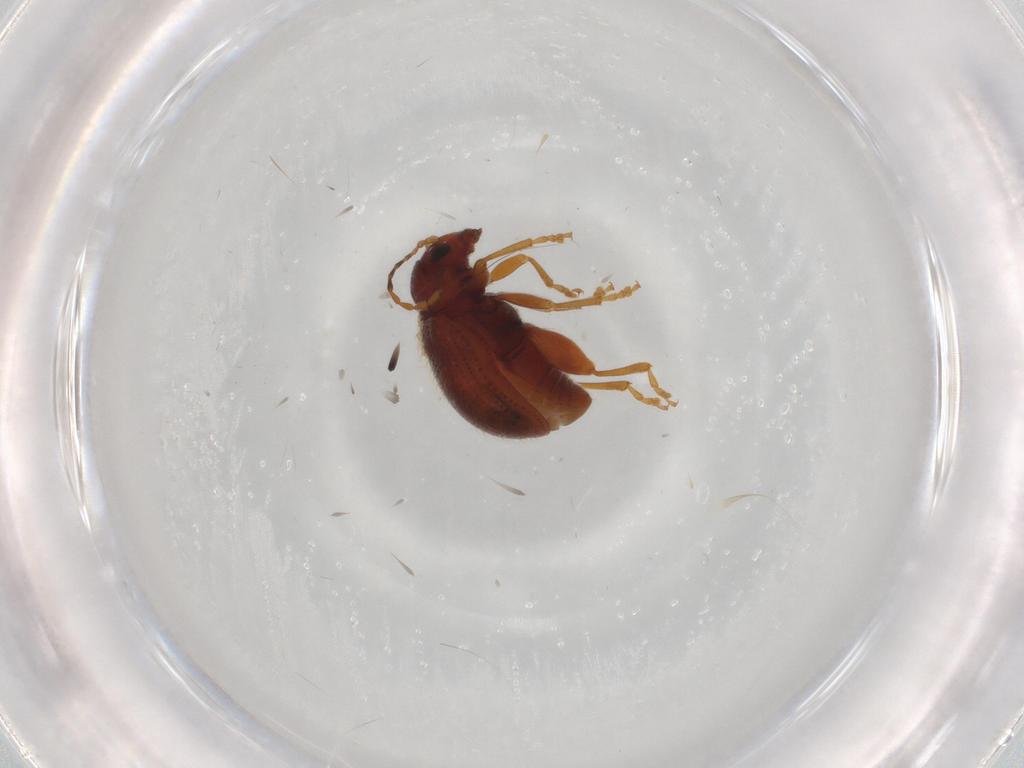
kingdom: Animalia
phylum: Arthropoda
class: Insecta
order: Coleoptera
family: Chrysomelidae
